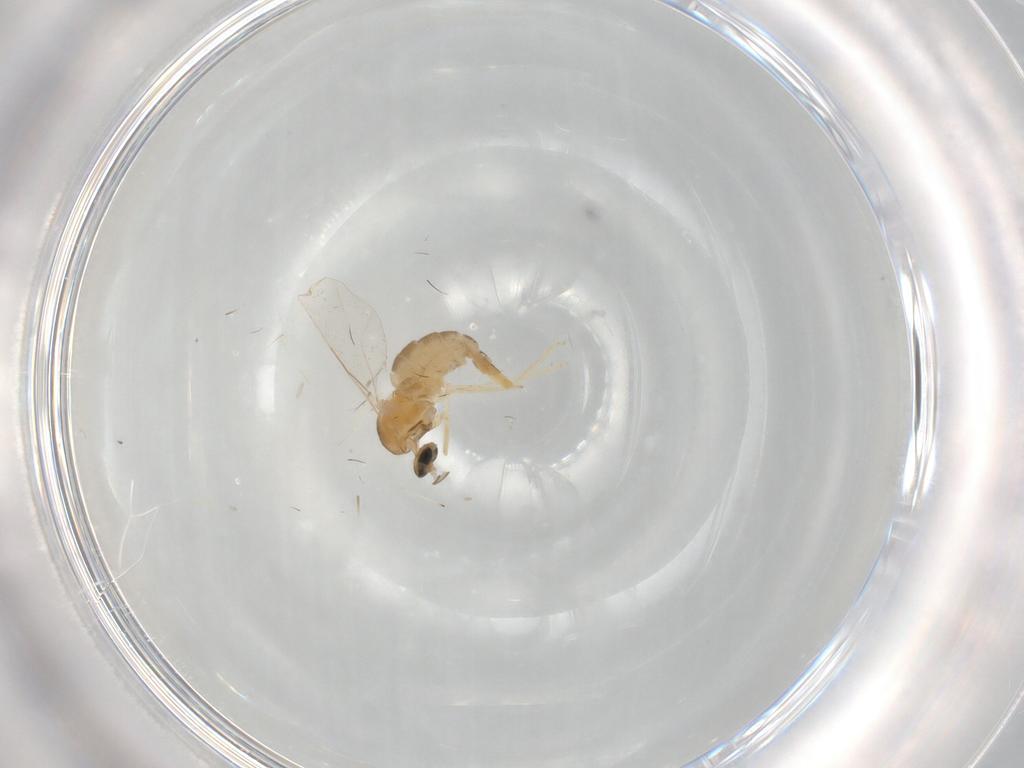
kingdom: Animalia
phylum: Arthropoda
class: Insecta
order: Diptera
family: Cecidomyiidae
